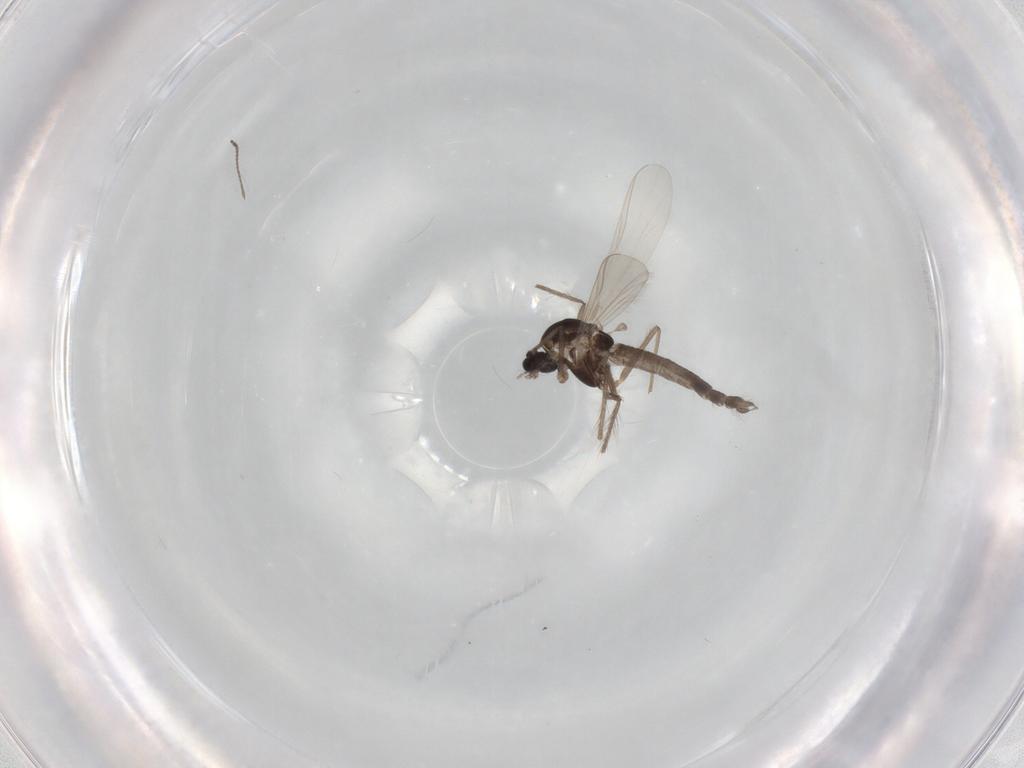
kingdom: Animalia
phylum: Arthropoda
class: Insecta
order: Diptera
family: Chironomidae
